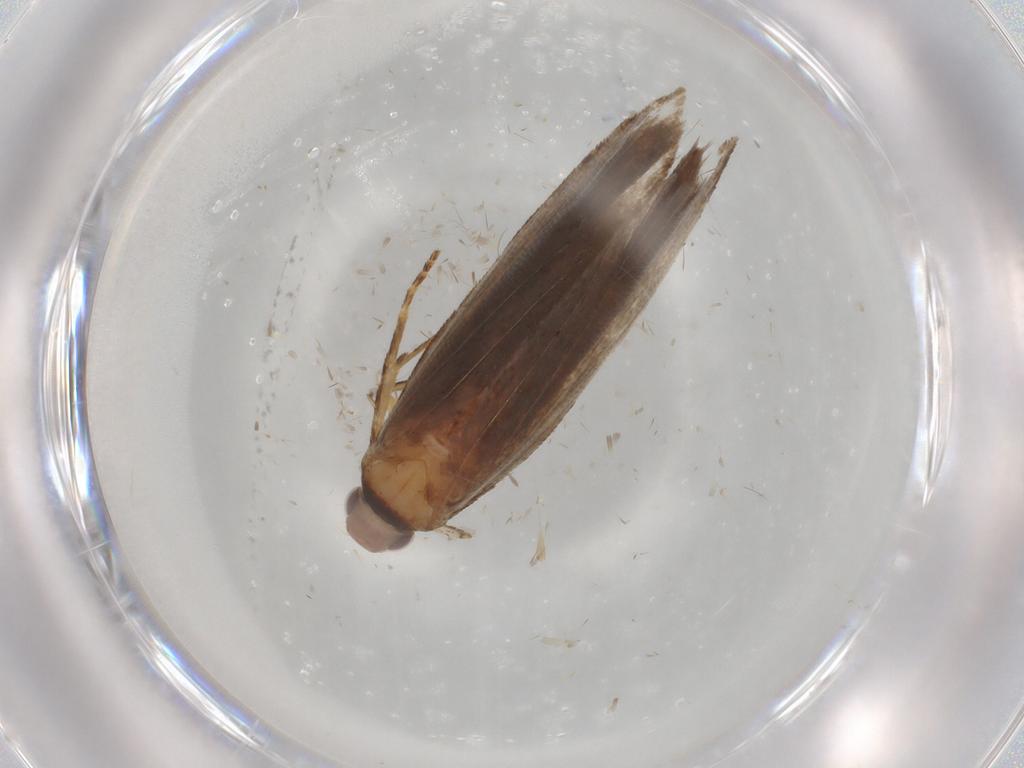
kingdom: Animalia
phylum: Arthropoda
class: Insecta
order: Lepidoptera
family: Gelechiidae
